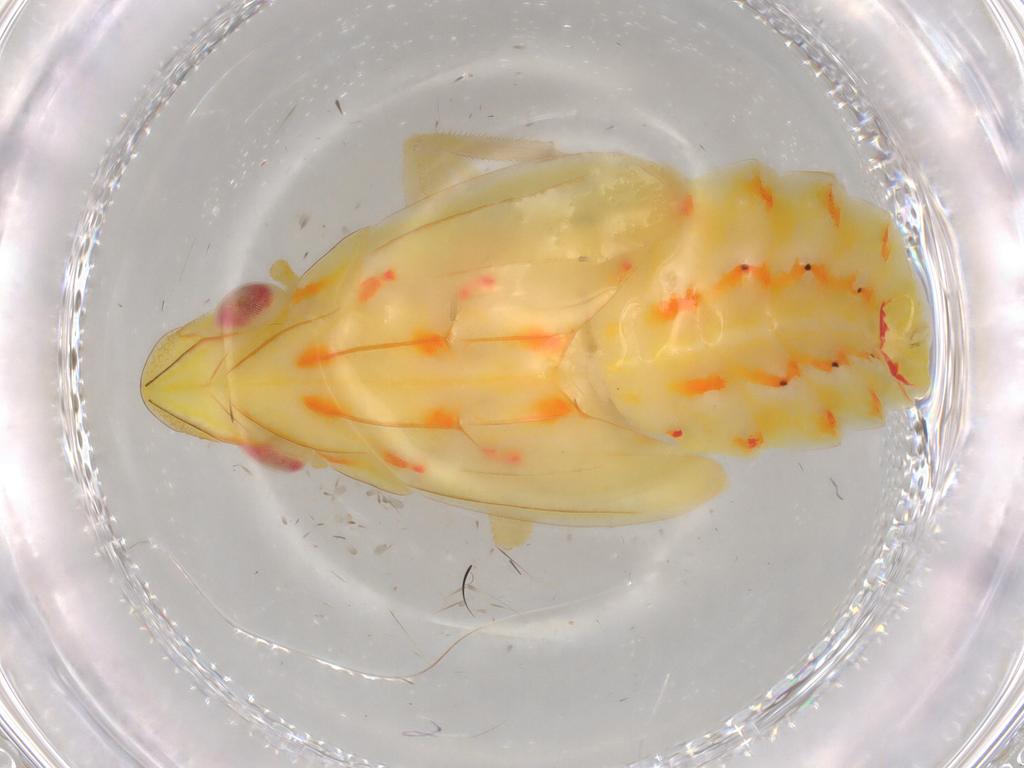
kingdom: Animalia
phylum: Arthropoda
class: Insecta
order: Hemiptera
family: Tropiduchidae
